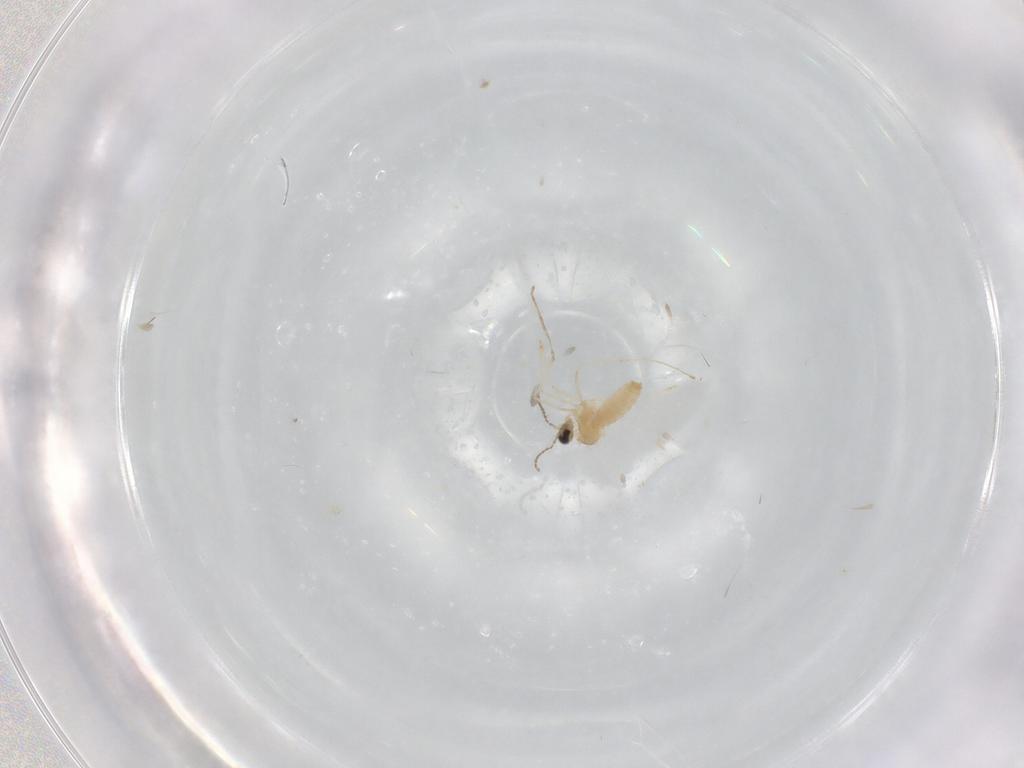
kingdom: Animalia
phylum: Arthropoda
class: Insecta
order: Diptera
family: Cecidomyiidae
